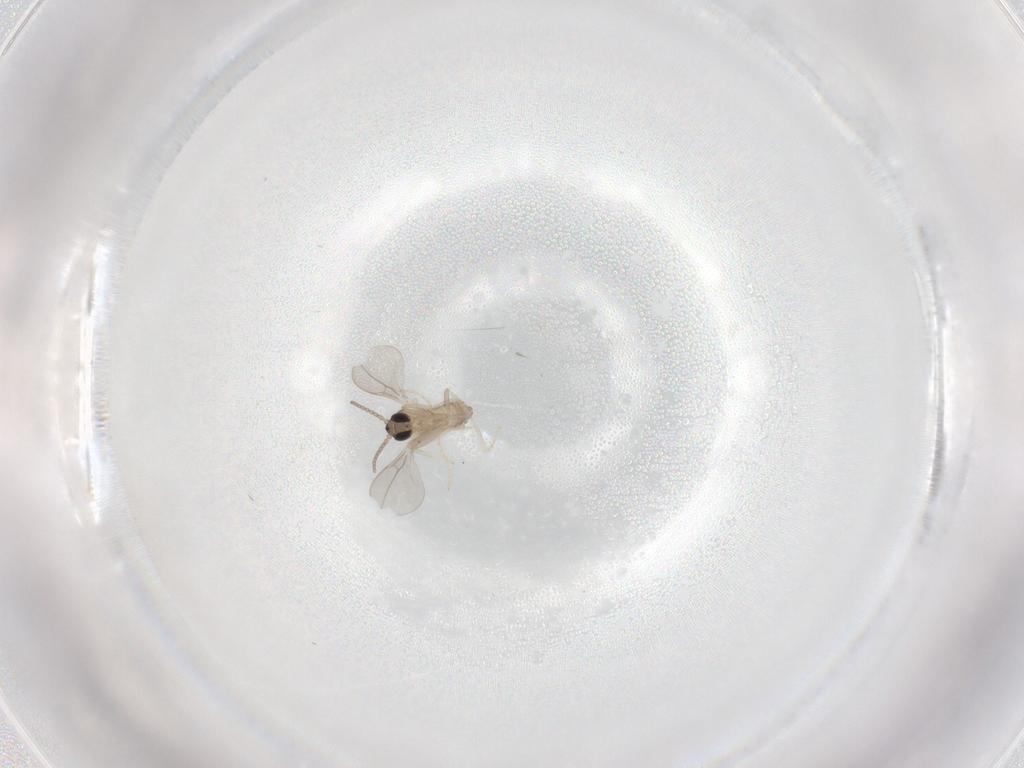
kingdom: Animalia
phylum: Arthropoda
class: Insecta
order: Diptera
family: Cecidomyiidae
